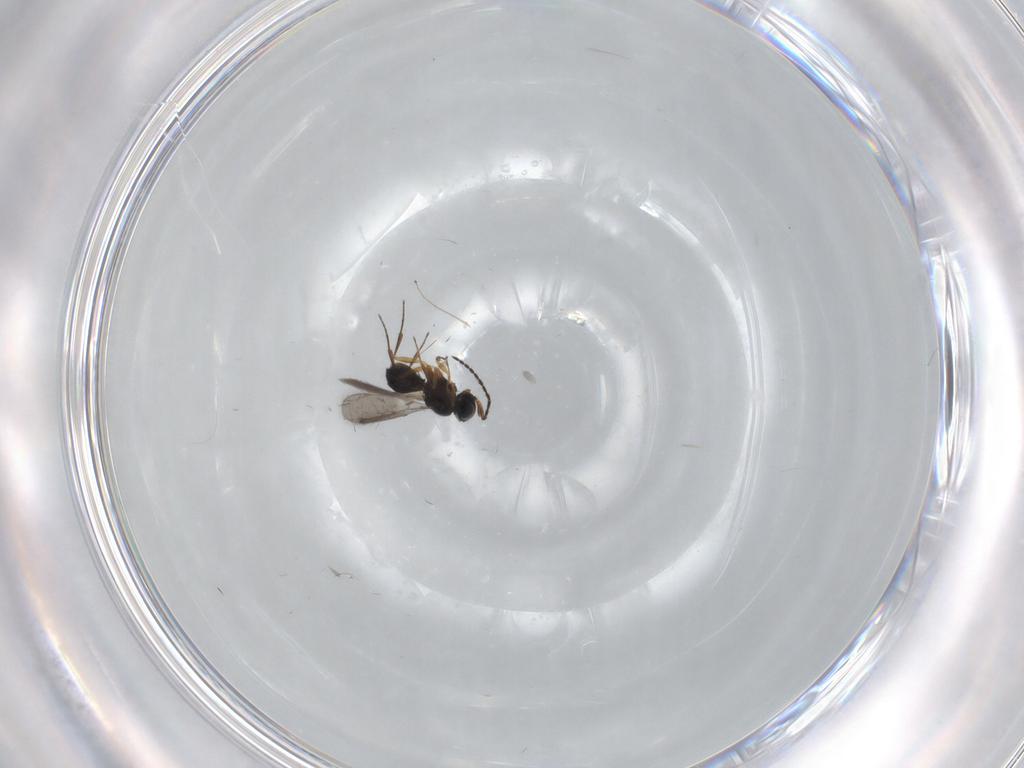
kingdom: Animalia
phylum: Arthropoda
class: Insecta
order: Hymenoptera
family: Scelionidae
